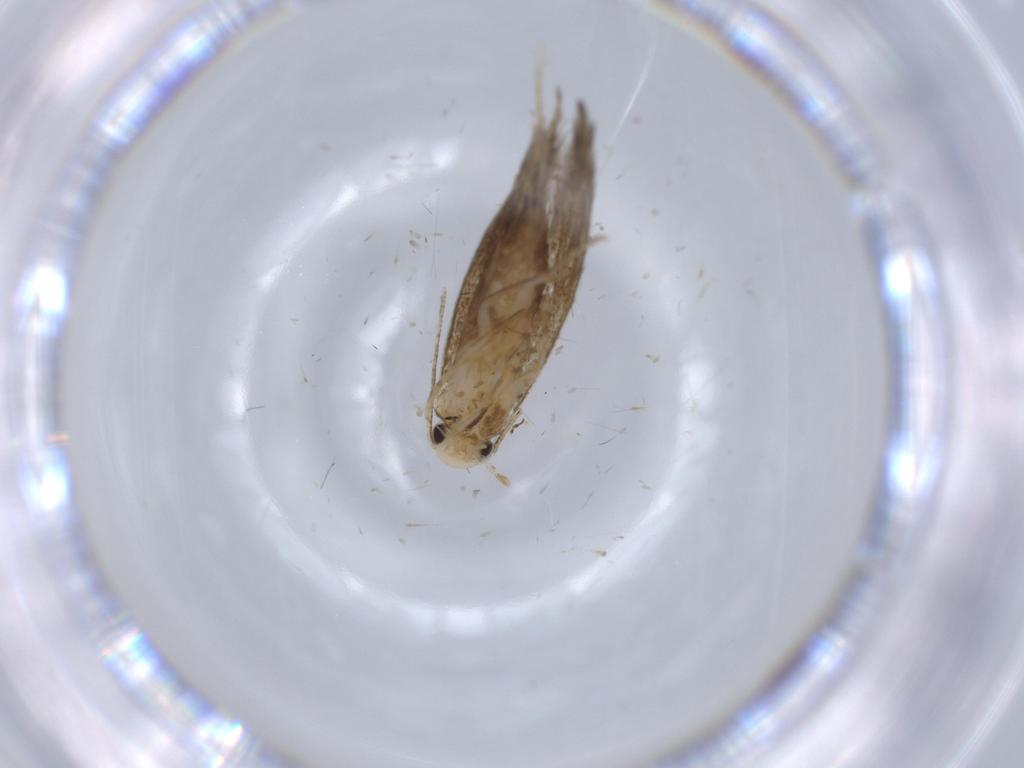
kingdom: Animalia
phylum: Arthropoda
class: Insecta
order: Lepidoptera
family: Tineidae
